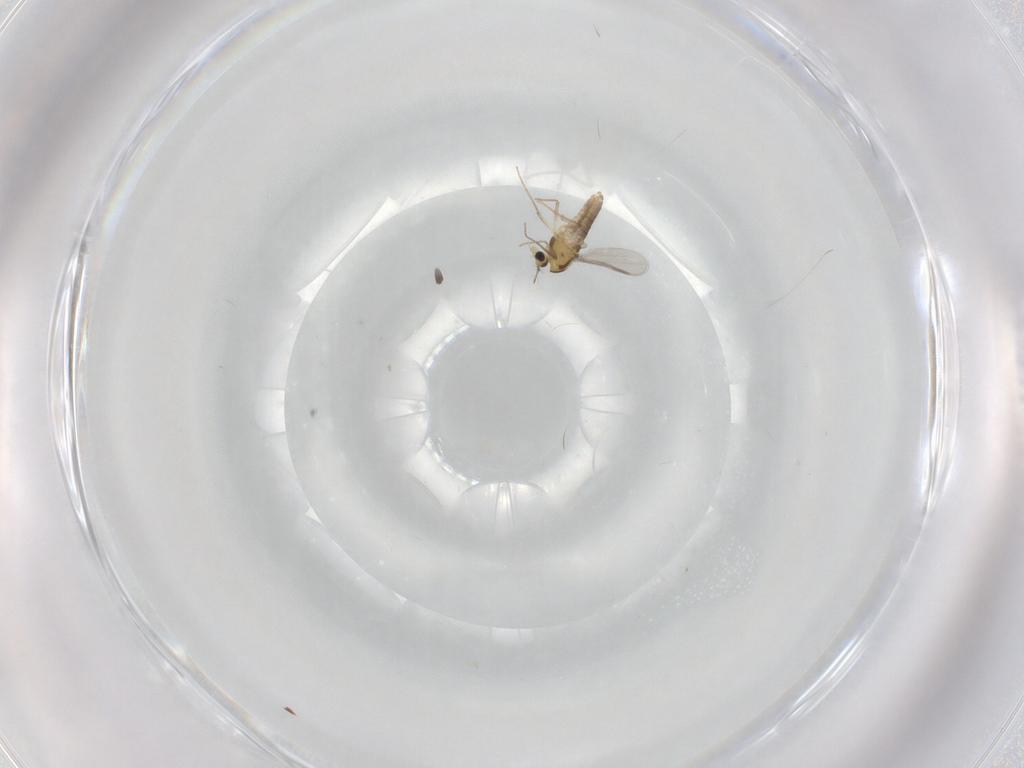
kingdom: Animalia
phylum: Arthropoda
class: Insecta
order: Diptera
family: Chironomidae
